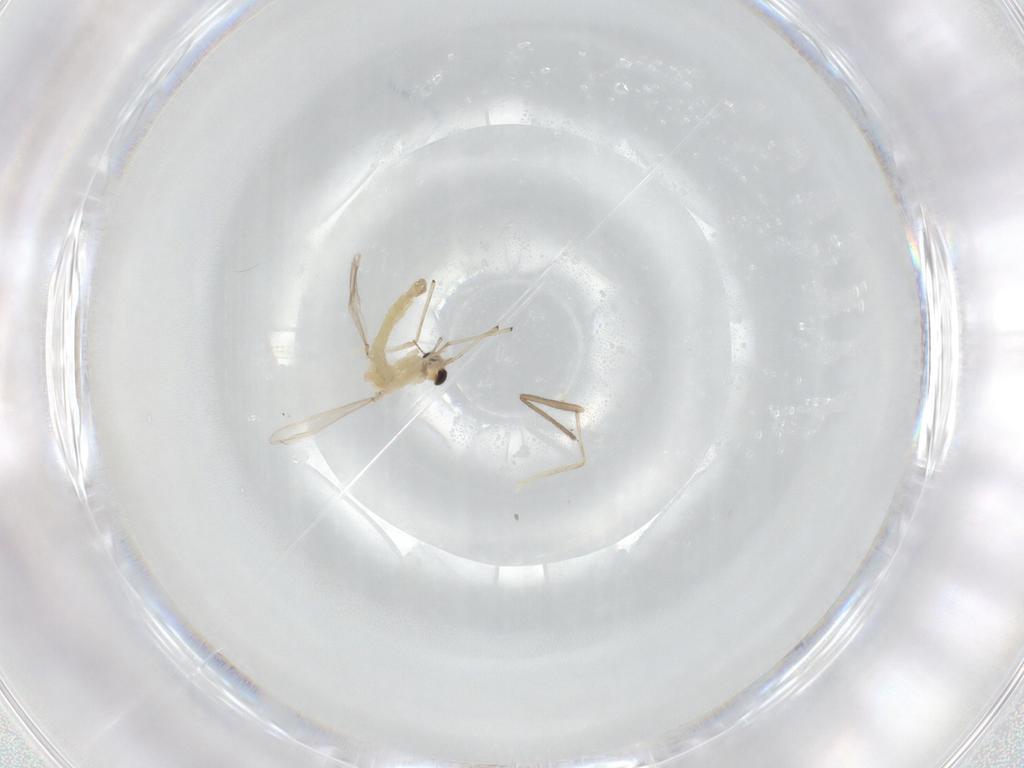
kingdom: Animalia
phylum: Arthropoda
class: Insecta
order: Diptera
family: Chironomidae
